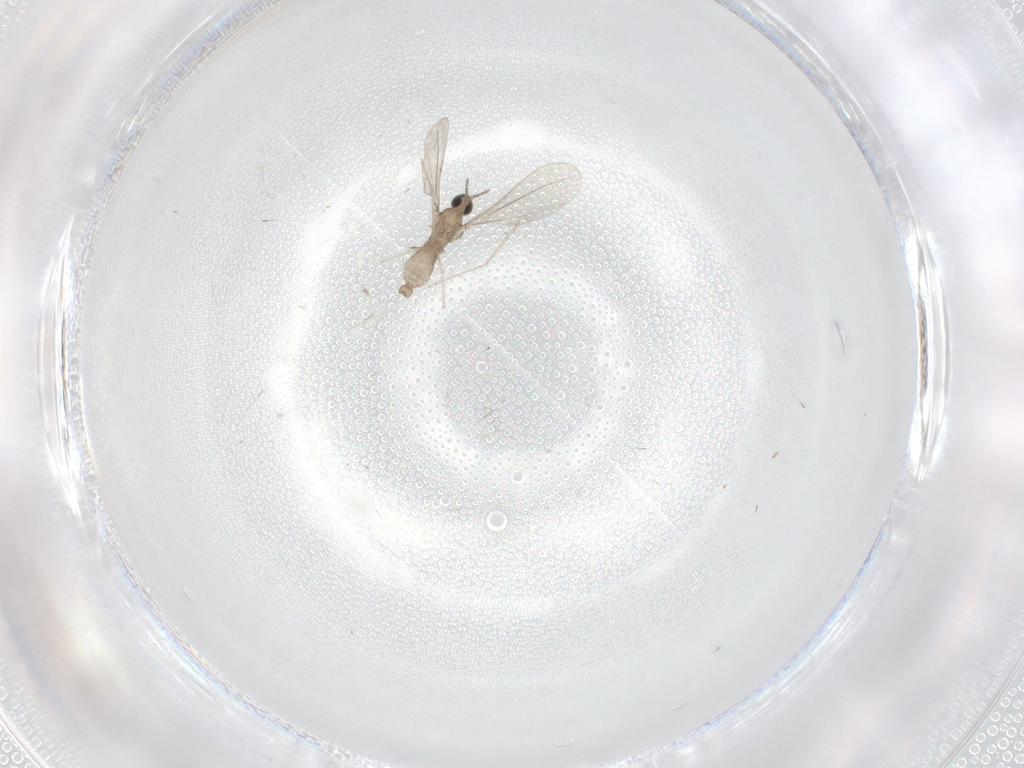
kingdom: Animalia
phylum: Arthropoda
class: Insecta
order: Diptera
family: Cecidomyiidae
